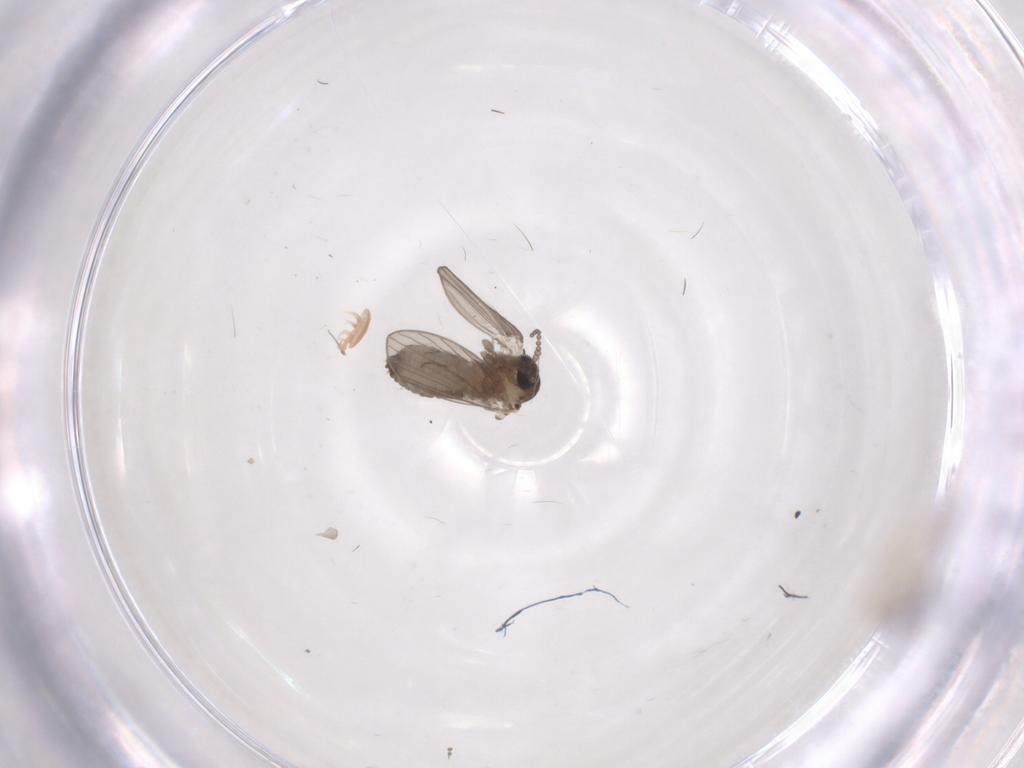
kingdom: Animalia
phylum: Arthropoda
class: Insecta
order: Diptera
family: Psychodidae
